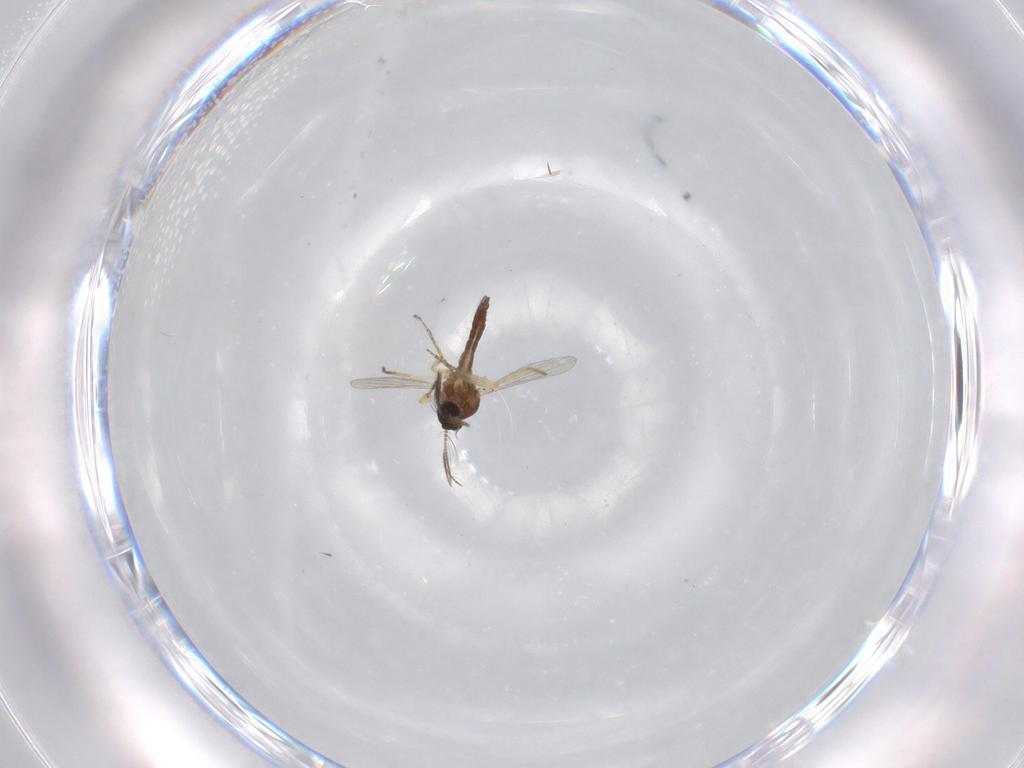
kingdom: Animalia
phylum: Arthropoda
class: Insecta
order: Diptera
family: Ceratopogonidae
